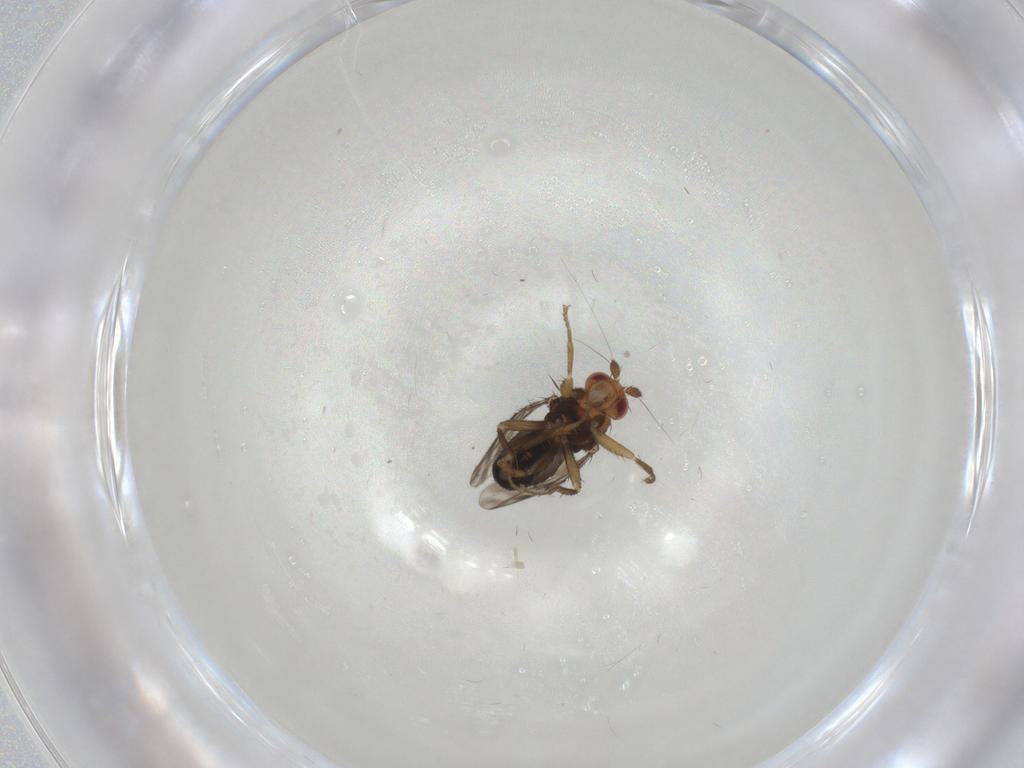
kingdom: Animalia
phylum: Arthropoda
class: Insecta
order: Diptera
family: Sphaeroceridae
